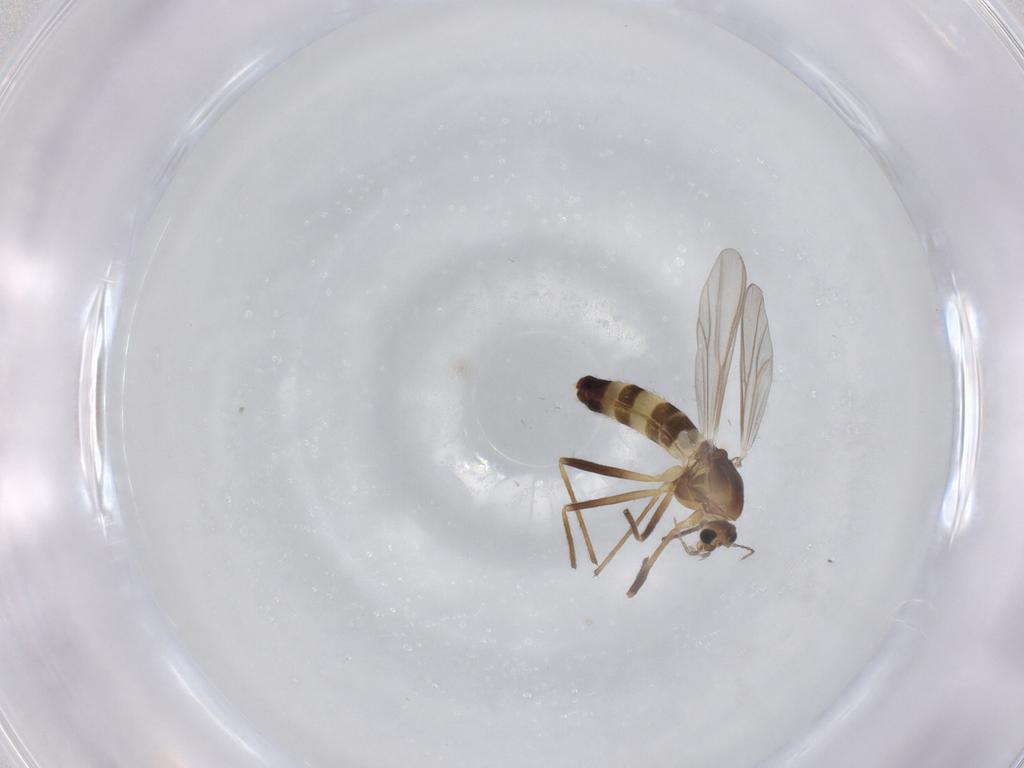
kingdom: Animalia
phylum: Arthropoda
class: Insecta
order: Diptera
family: Chironomidae
